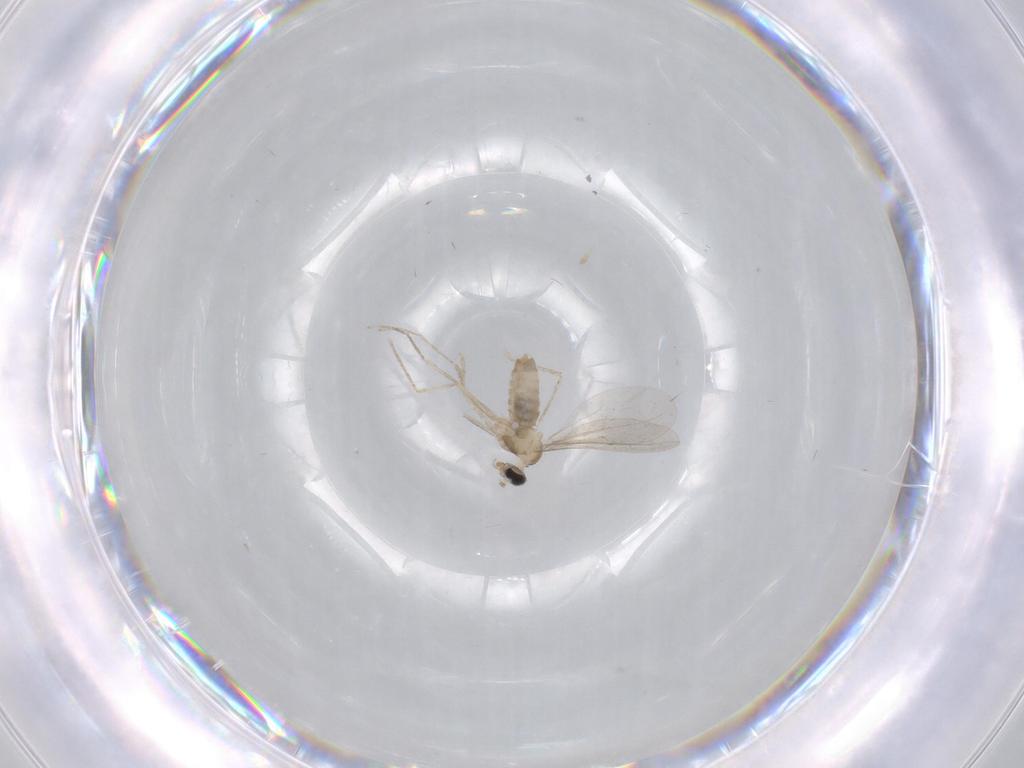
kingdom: Animalia
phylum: Arthropoda
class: Insecta
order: Diptera
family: Cecidomyiidae
